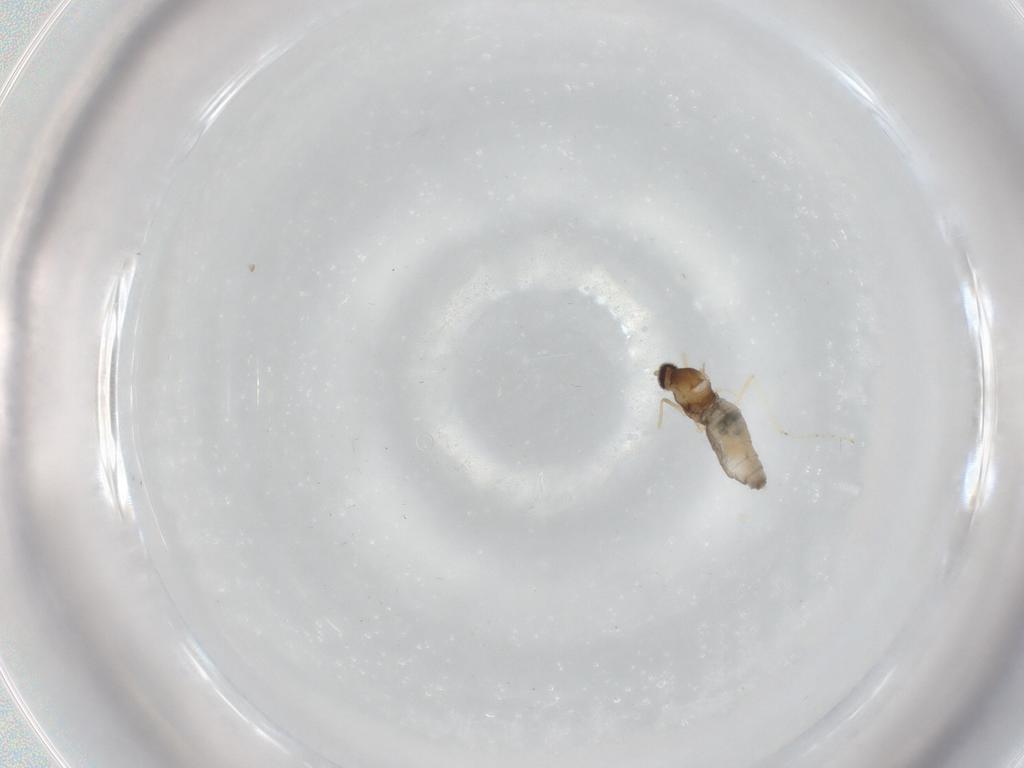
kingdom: Animalia
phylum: Arthropoda
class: Insecta
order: Diptera
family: Cecidomyiidae
